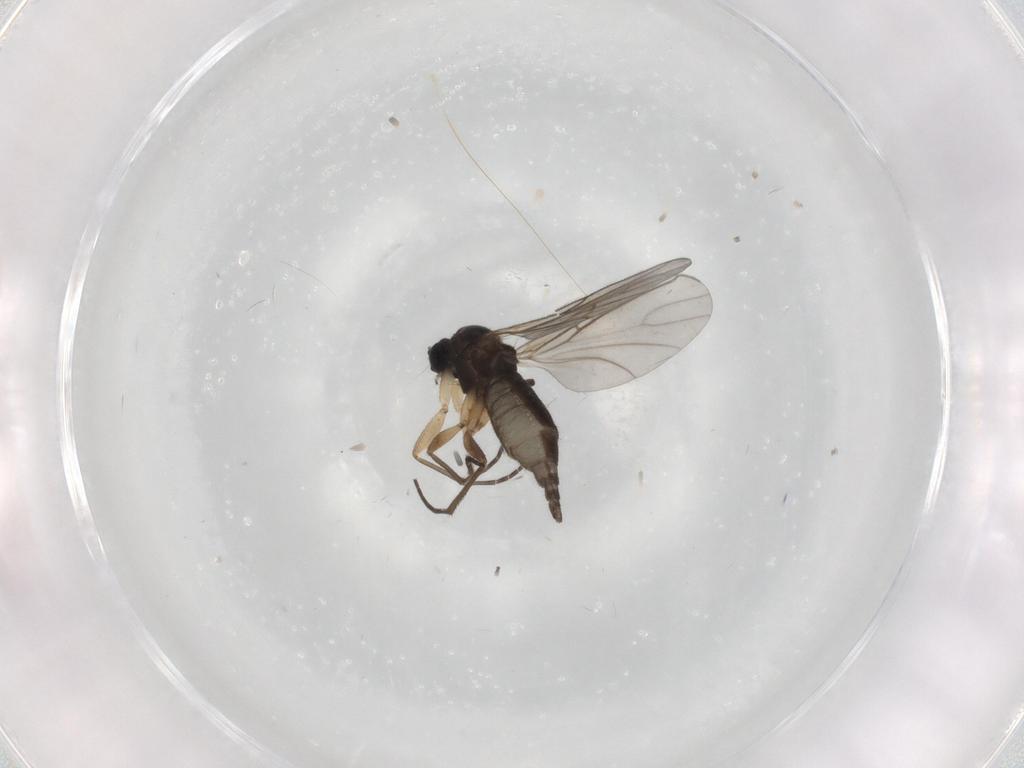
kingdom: Animalia
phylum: Arthropoda
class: Insecta
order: Diptera
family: Sciaridae
